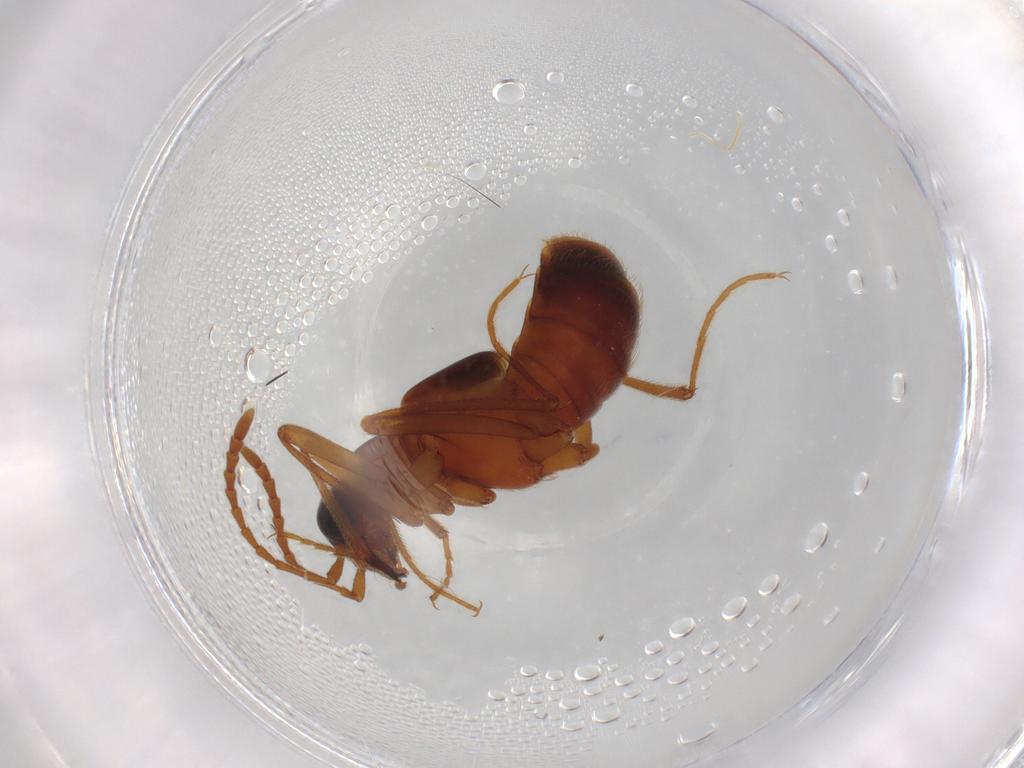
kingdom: Animalia
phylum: Arthropoda
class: Insecta
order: Coleoptera
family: Staphylinidae
